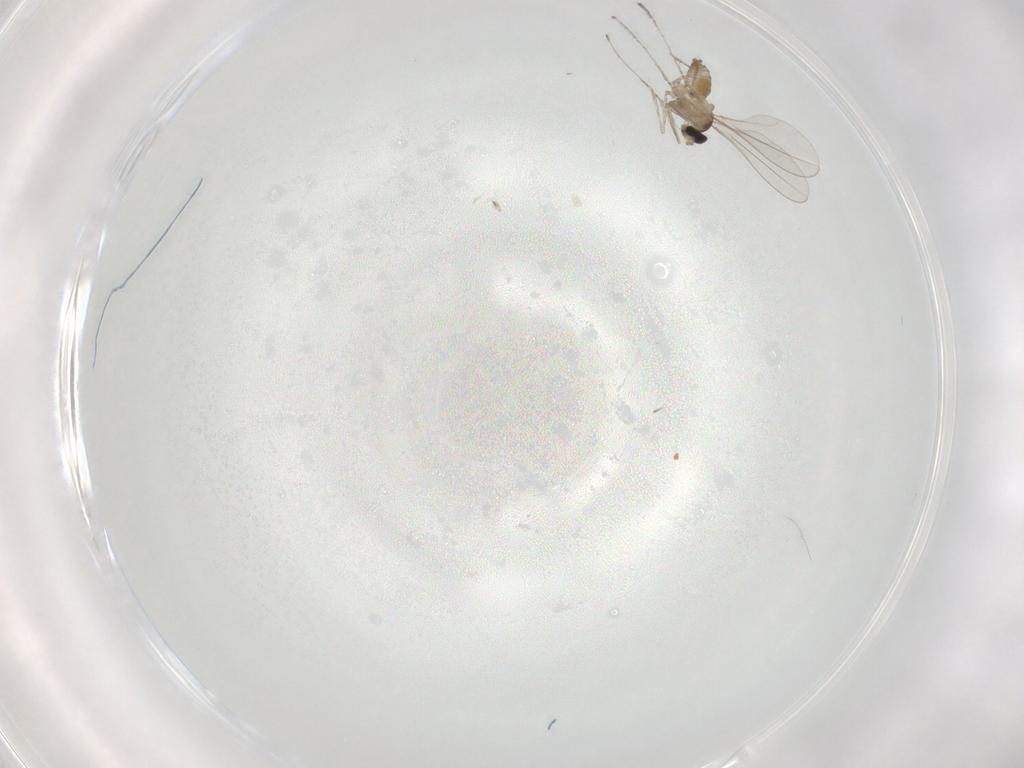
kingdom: Animalia
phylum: Arthropoda
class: Insecta
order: Diptera
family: Cecidomyiidae
